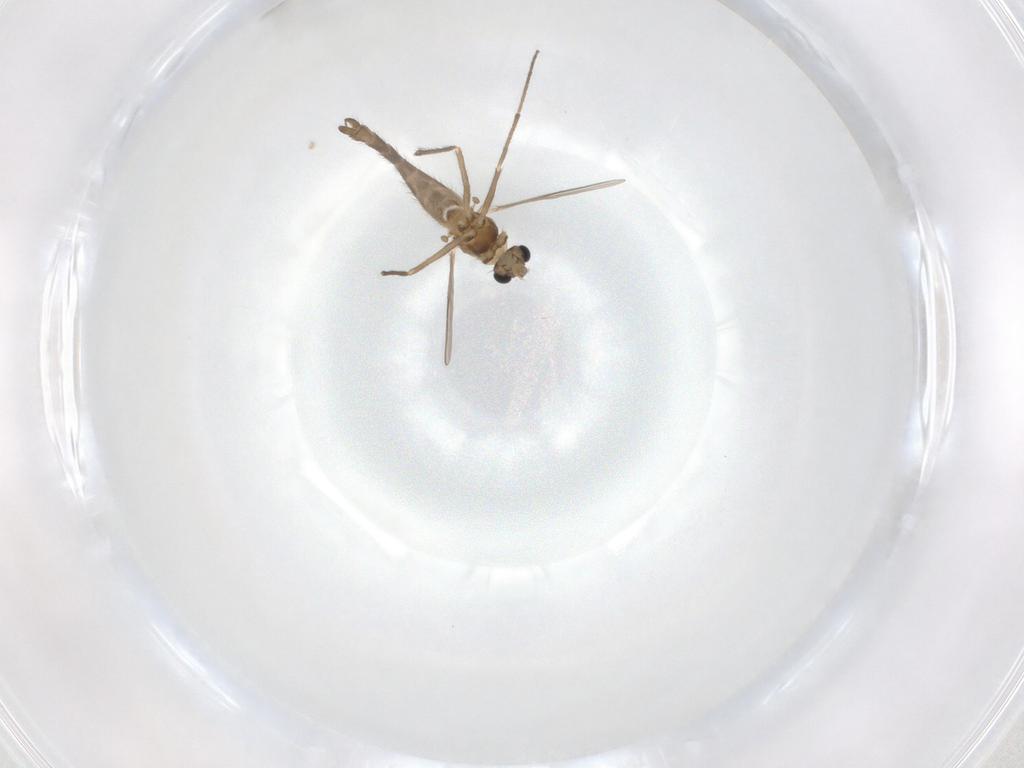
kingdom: Animalia
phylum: Arthropoda
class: Insecta
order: Diptera
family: Chironomidae
